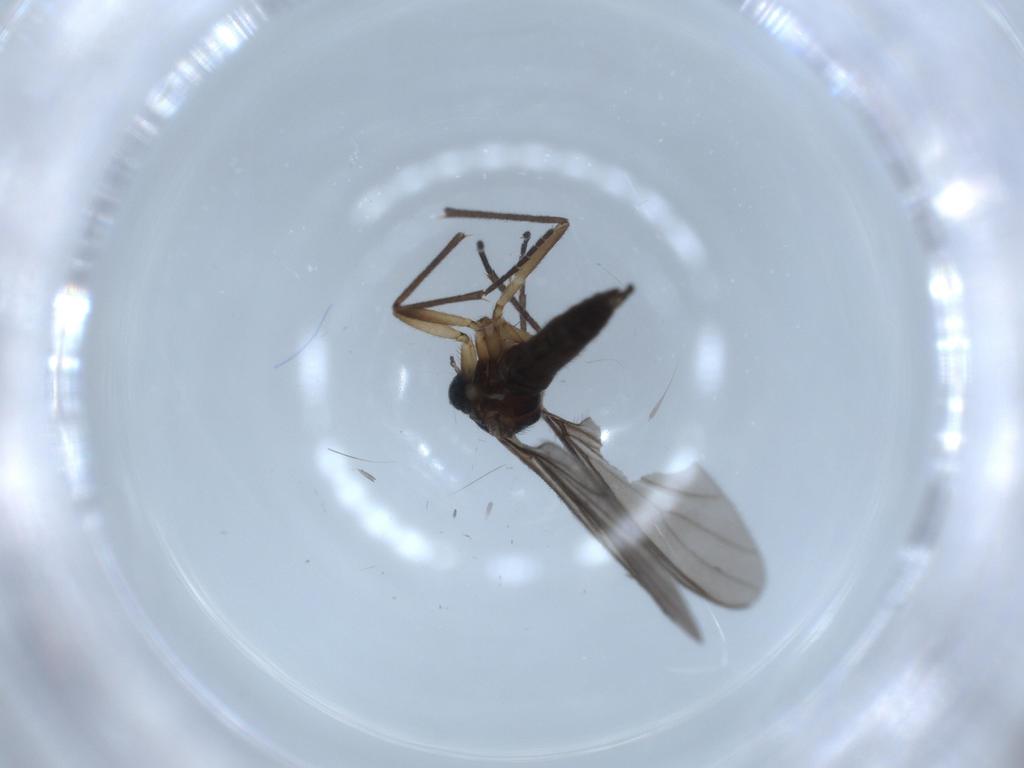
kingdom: Animalia
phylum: Arthropoda
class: Insecta
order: Diptera
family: Sciaridae
